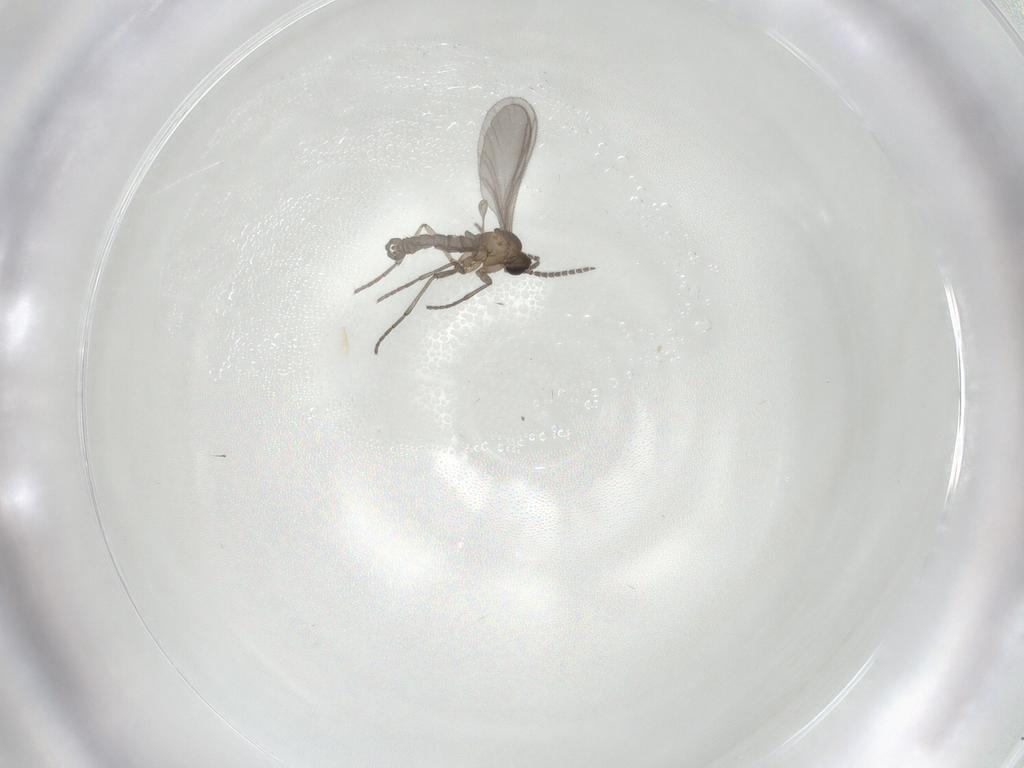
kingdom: Animalia
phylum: Arthropoda
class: Insecta
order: Diptera
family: Sciaridae
